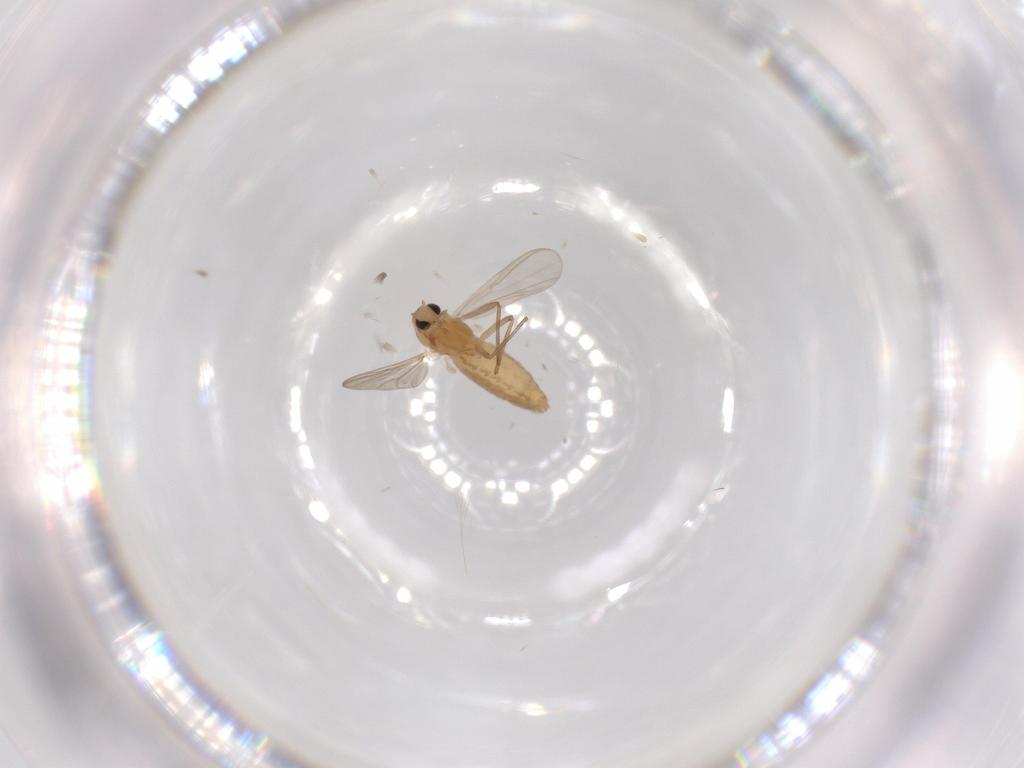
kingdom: Animalia
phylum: Arthropoda
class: Insecta
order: Diptera
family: Chironomidae
